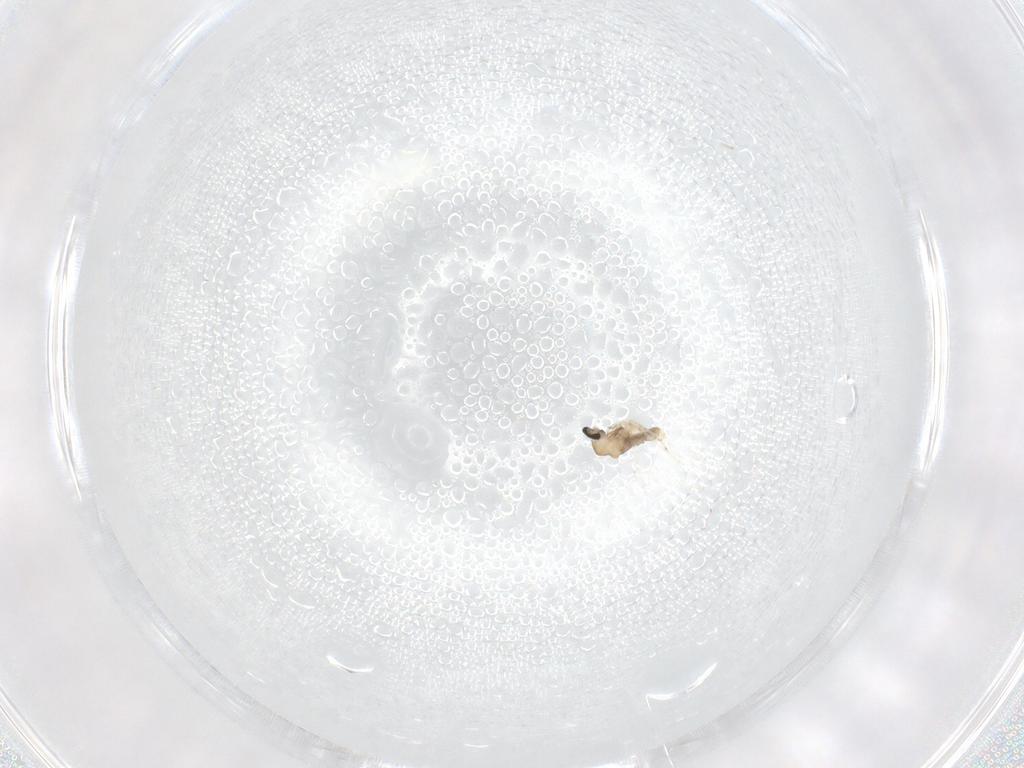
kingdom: Animalia
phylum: Arthropoda
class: Insecta
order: Diptera
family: Cecidomyiidae
